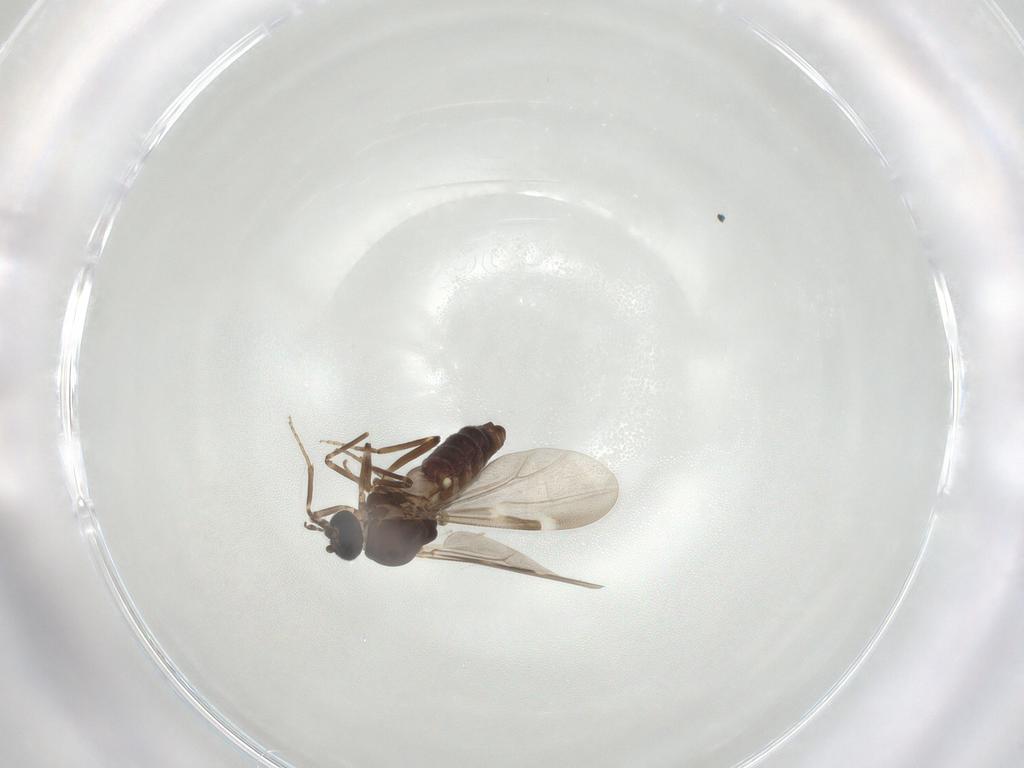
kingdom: Animalia
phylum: Arthropoda
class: Insecta
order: Diptera
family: Ceratopogonidae
